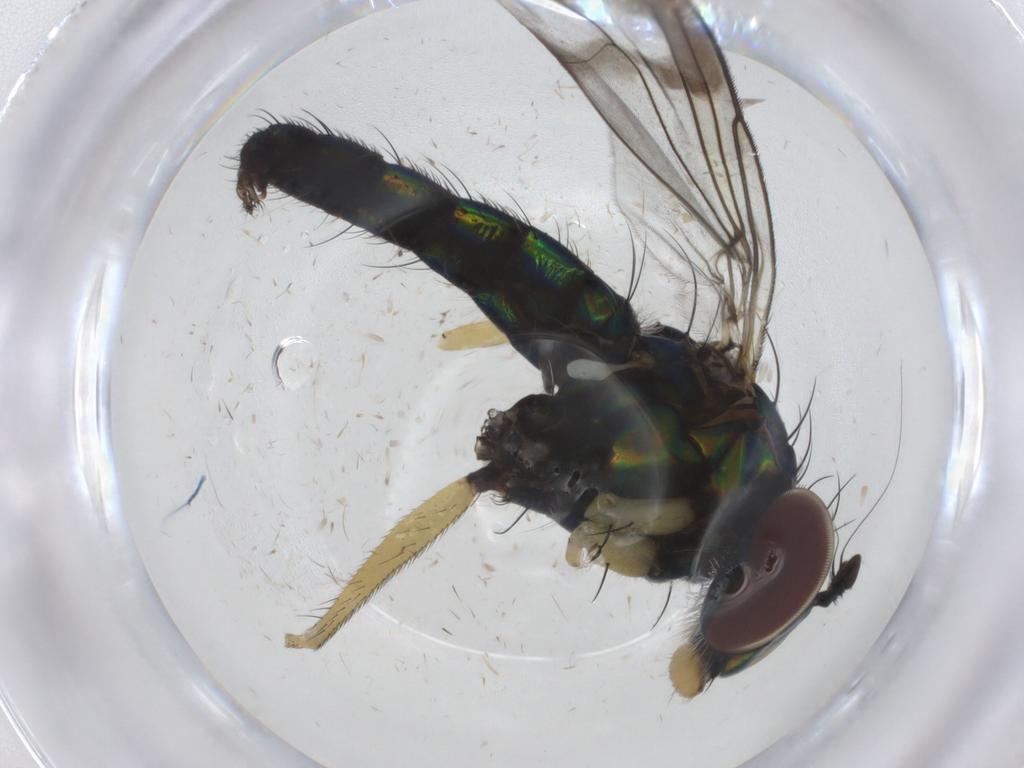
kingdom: Animalia
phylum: Arthropoda
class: Insecta
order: Diptera
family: Dolichopodidae
